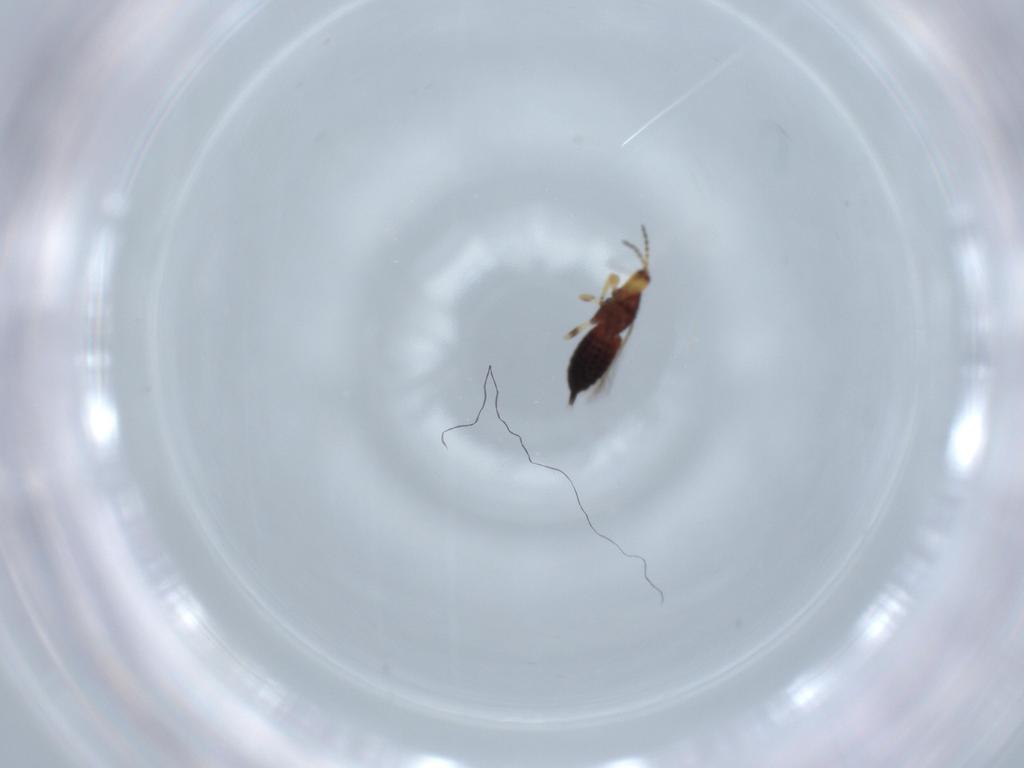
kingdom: Animalia
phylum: Arthropoda
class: Insecta
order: Thysanoptera
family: Phlaeothripidae
